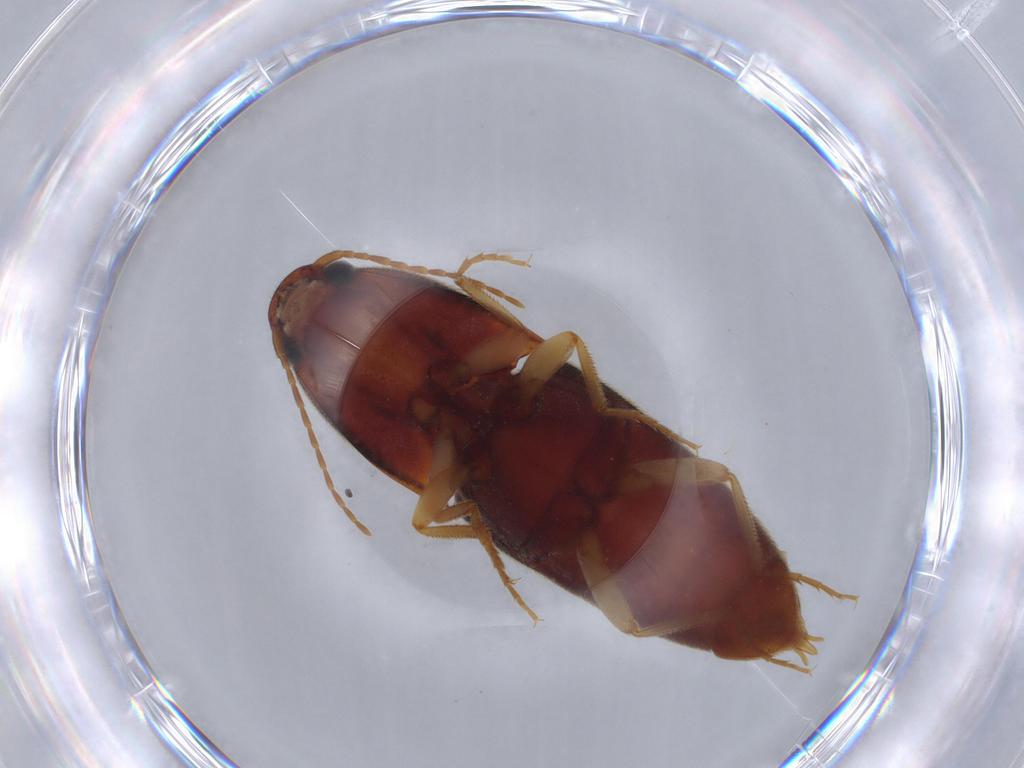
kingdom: Animalia
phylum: Arthropoda
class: Insecta
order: Coleoptera
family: Elateridae
